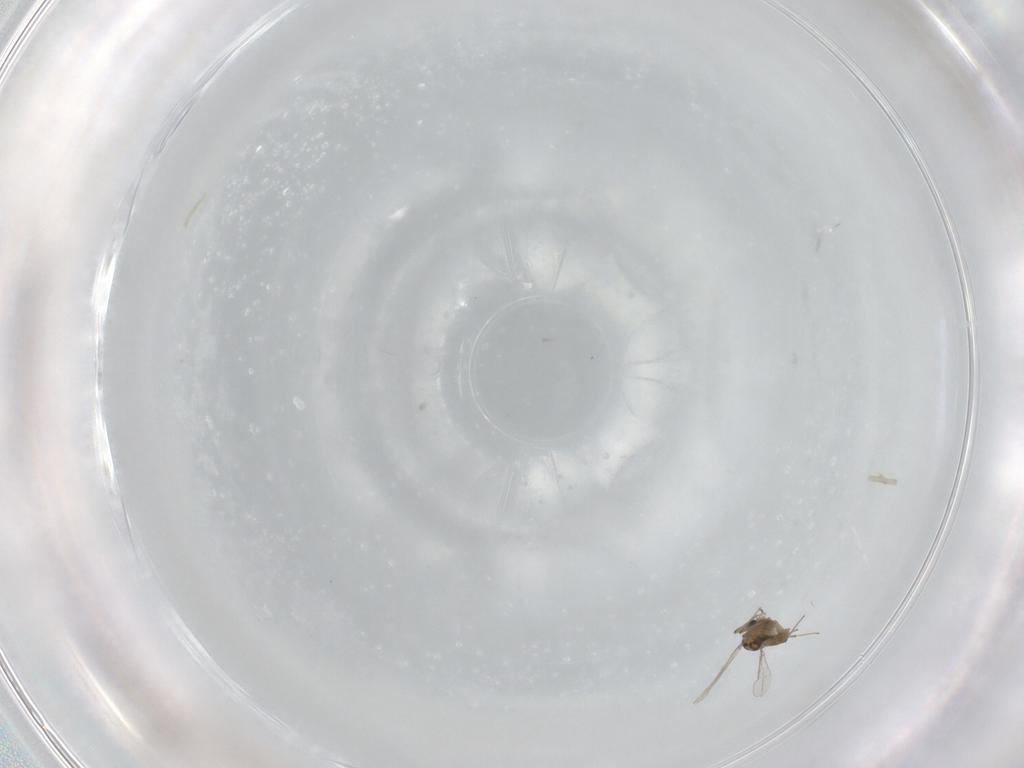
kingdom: Animalia
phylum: Arthropoda
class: Insecta
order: Diptera
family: Chironomidae
